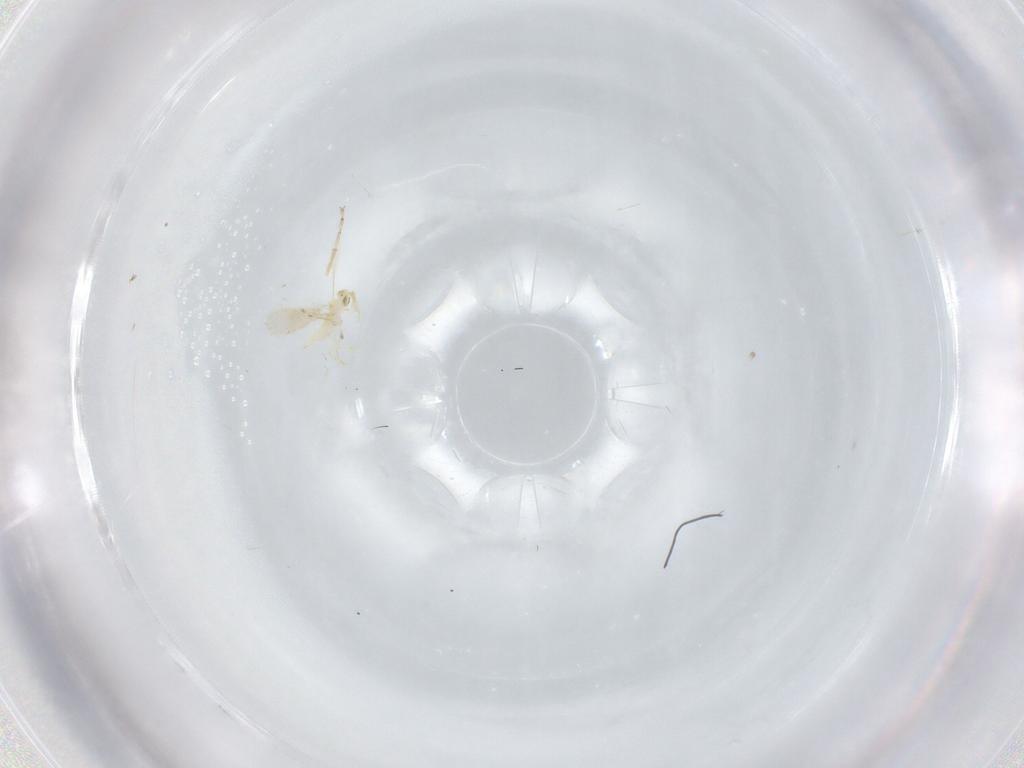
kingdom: Animalia
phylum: Arthropoda
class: Insecta
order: Hymenoptera
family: Aphelinidae
